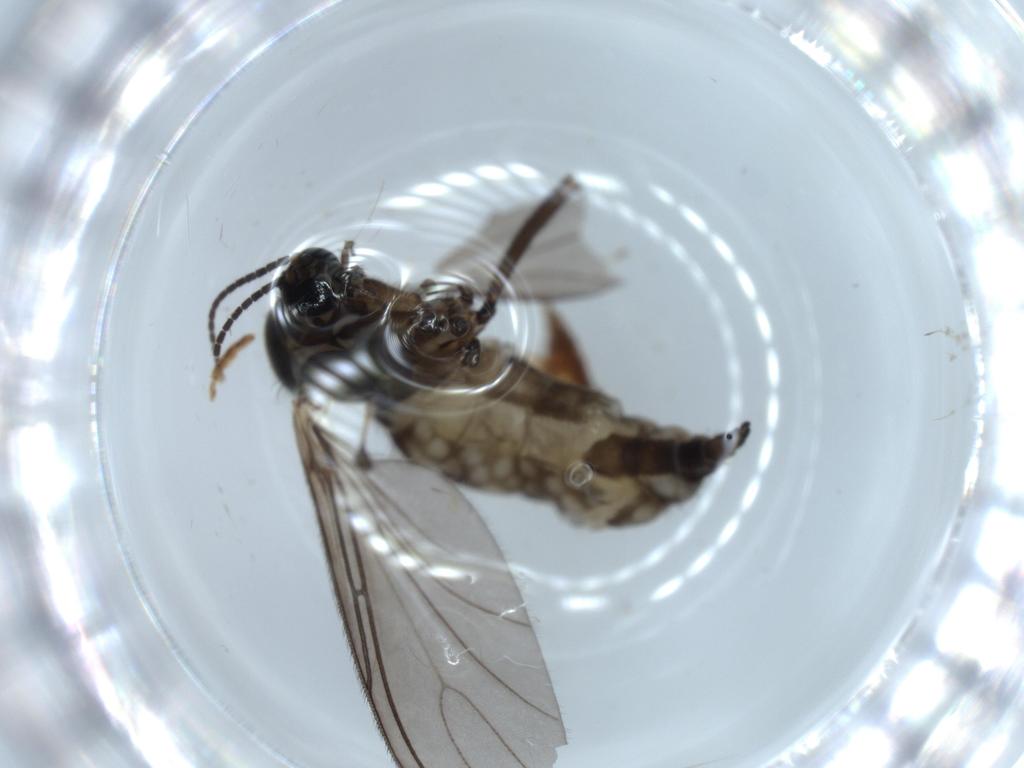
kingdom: Animalia
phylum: Arthropoda
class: Insecta
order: Diptera
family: Sciaridae
